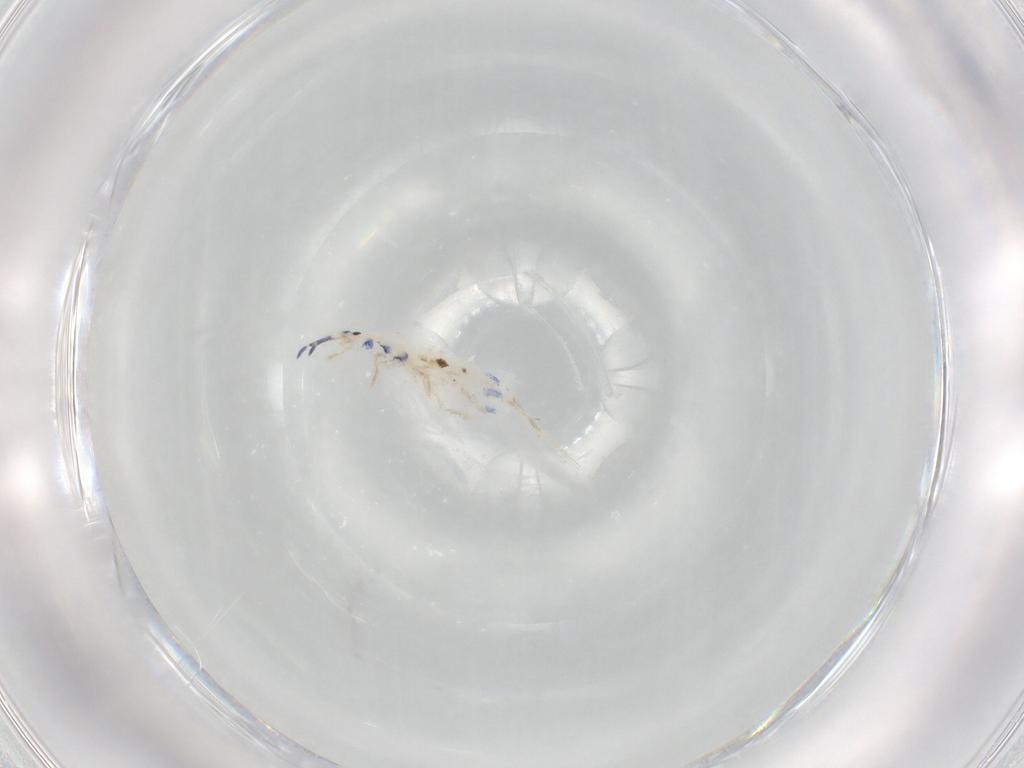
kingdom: Animalia
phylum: Arthropoda
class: Collembola
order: Entomobryomorpha
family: Entomobryidae
